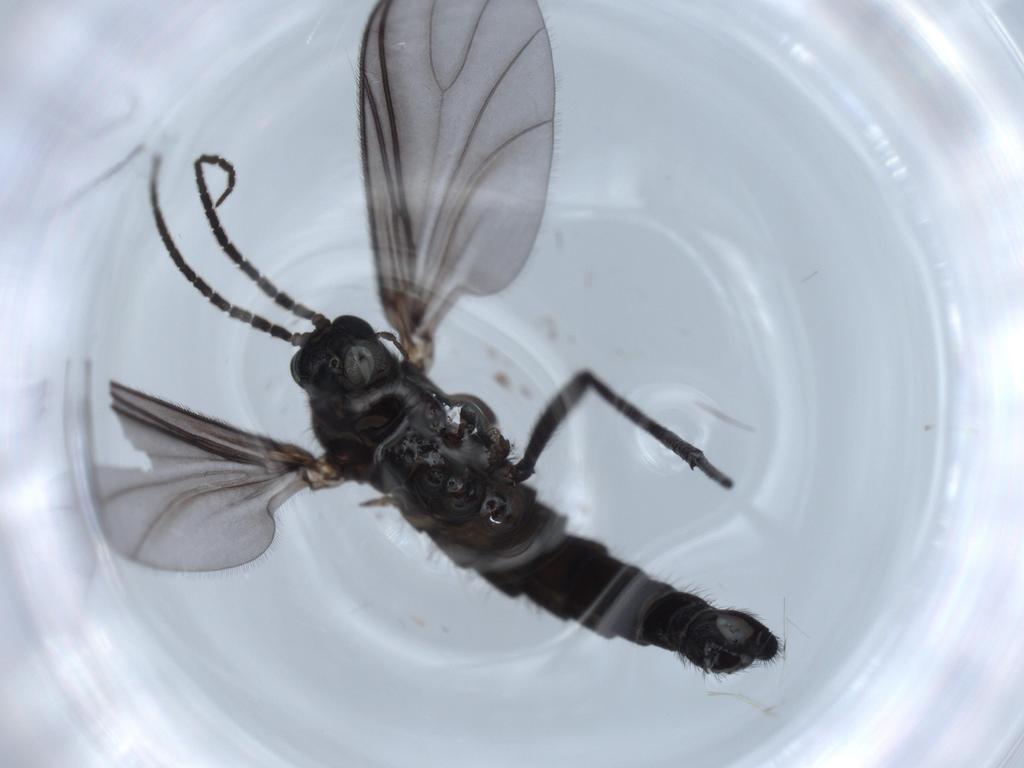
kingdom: Animalia
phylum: Arthropoda
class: Insecta
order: Diptera
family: Sciaridae
